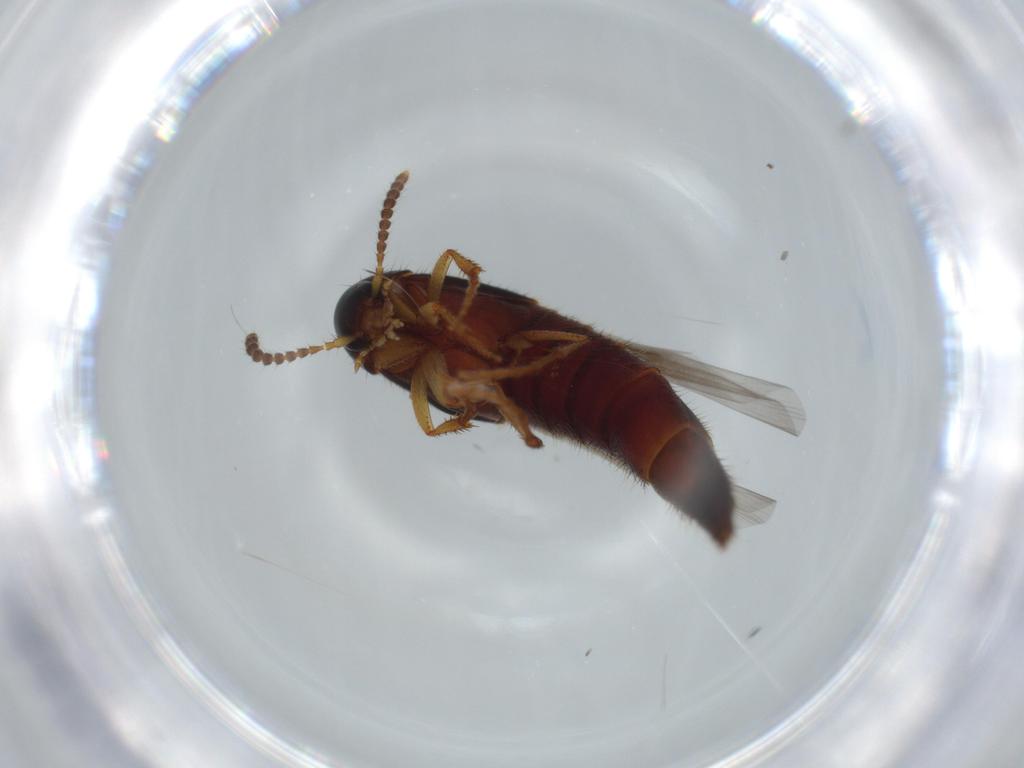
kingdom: Animalia
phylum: Arthropoda
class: Insecta
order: Coleoptera
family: Staphylinidae
